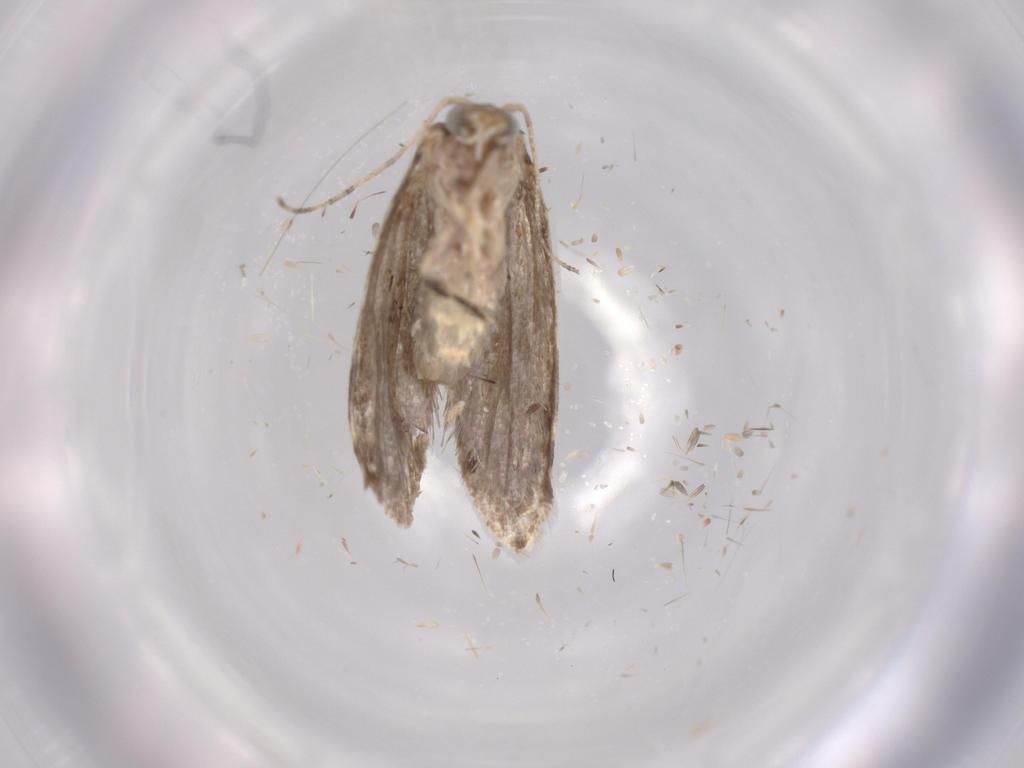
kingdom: Animalia
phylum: Arthropoda
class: Insecta
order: Lepidoptera
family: Tineidae
